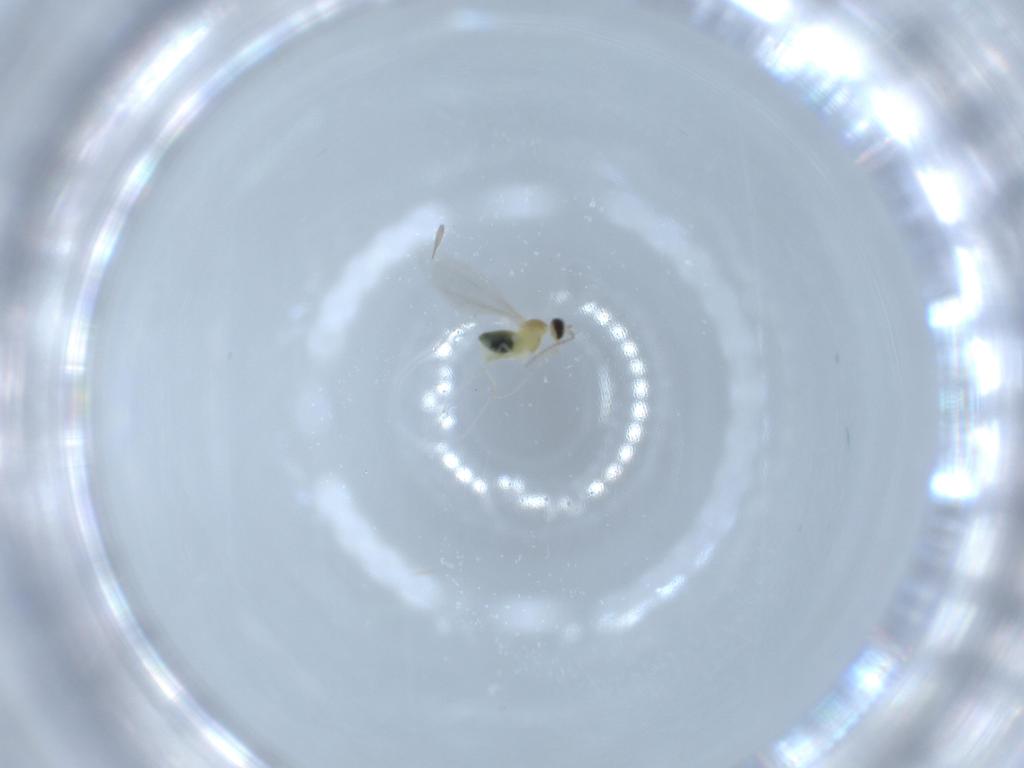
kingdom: Animalia
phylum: Arthropoda
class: Insecta
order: Diptera
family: Cecidomyiidae
